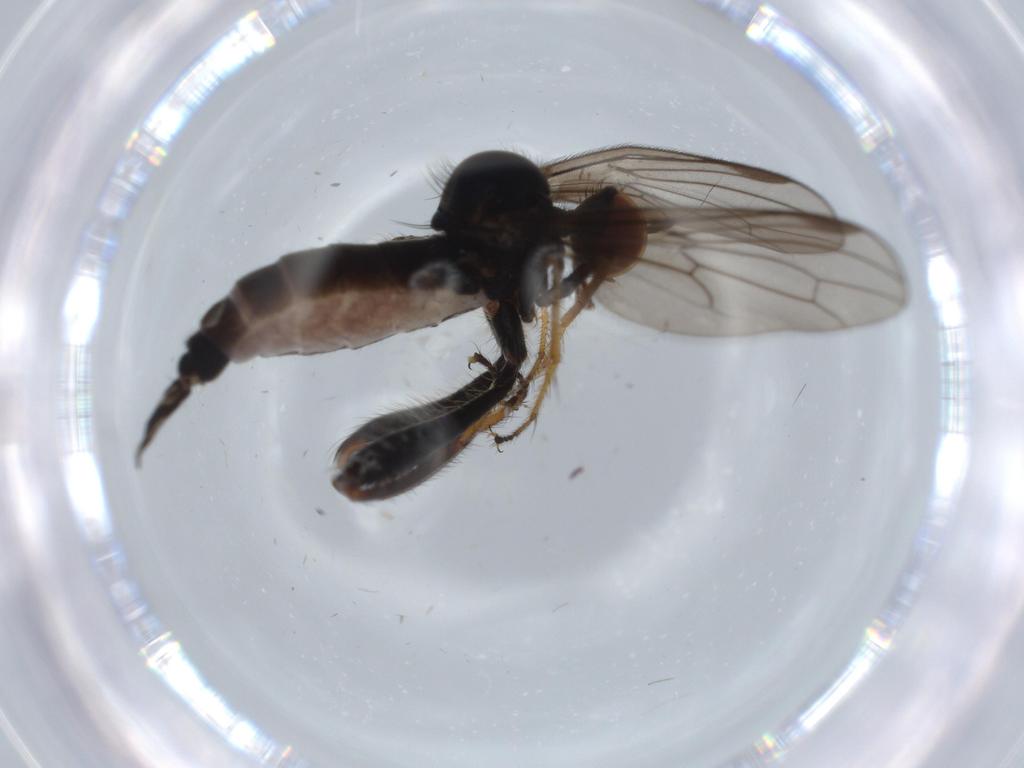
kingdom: Animalia
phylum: Arthropoda
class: Insecta
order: Diptera
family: Hybotidae
